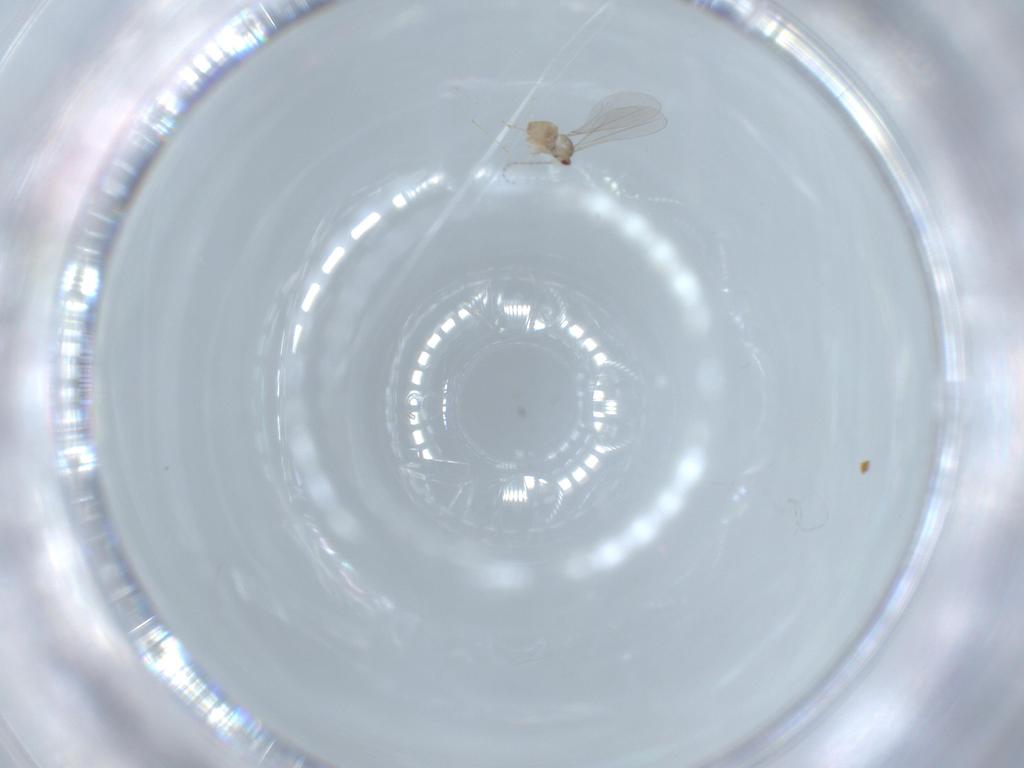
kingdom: Animalia
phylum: Arthropoda
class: Insecta
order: Diptera
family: Cecidomyiidae
